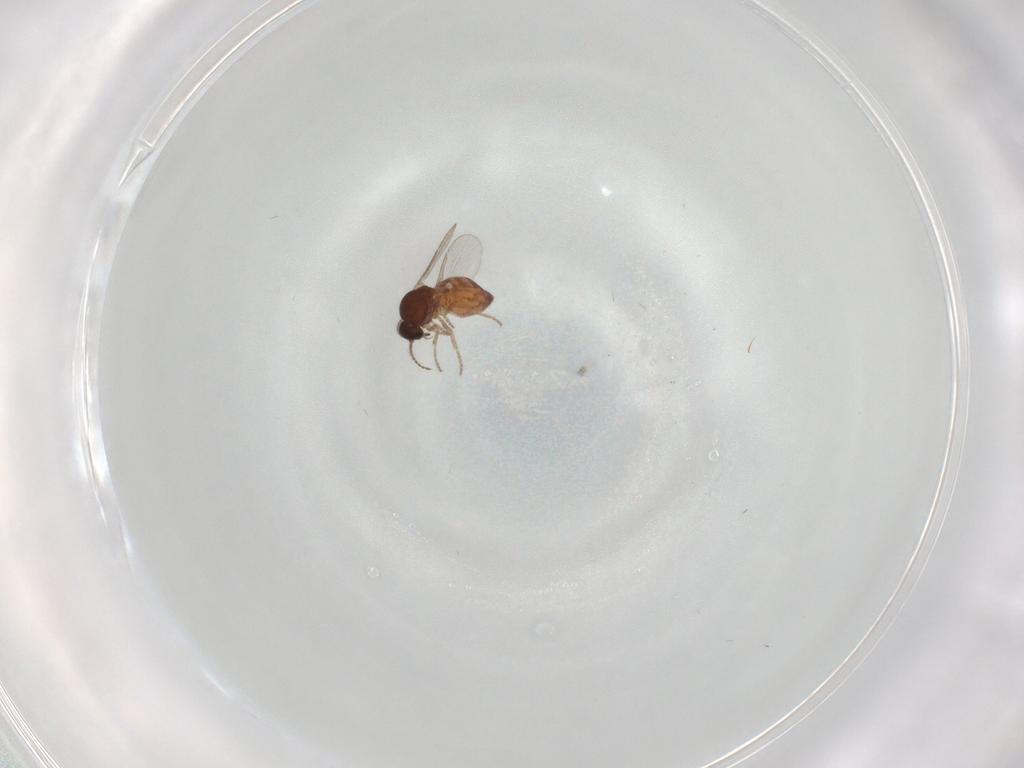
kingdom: Animalia
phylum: Arthropoda
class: Insecta
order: Diptera
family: Ceratopogonidae
